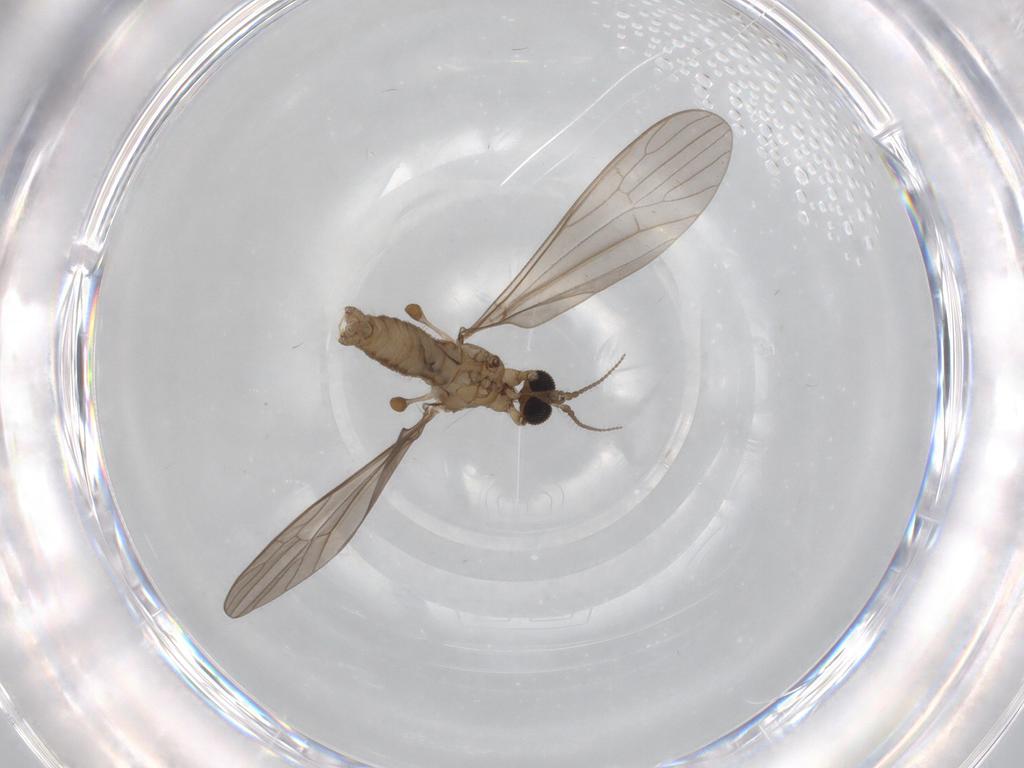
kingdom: Animalia
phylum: Arthropoda
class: Insecta
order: Diptera
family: Limoniidae
